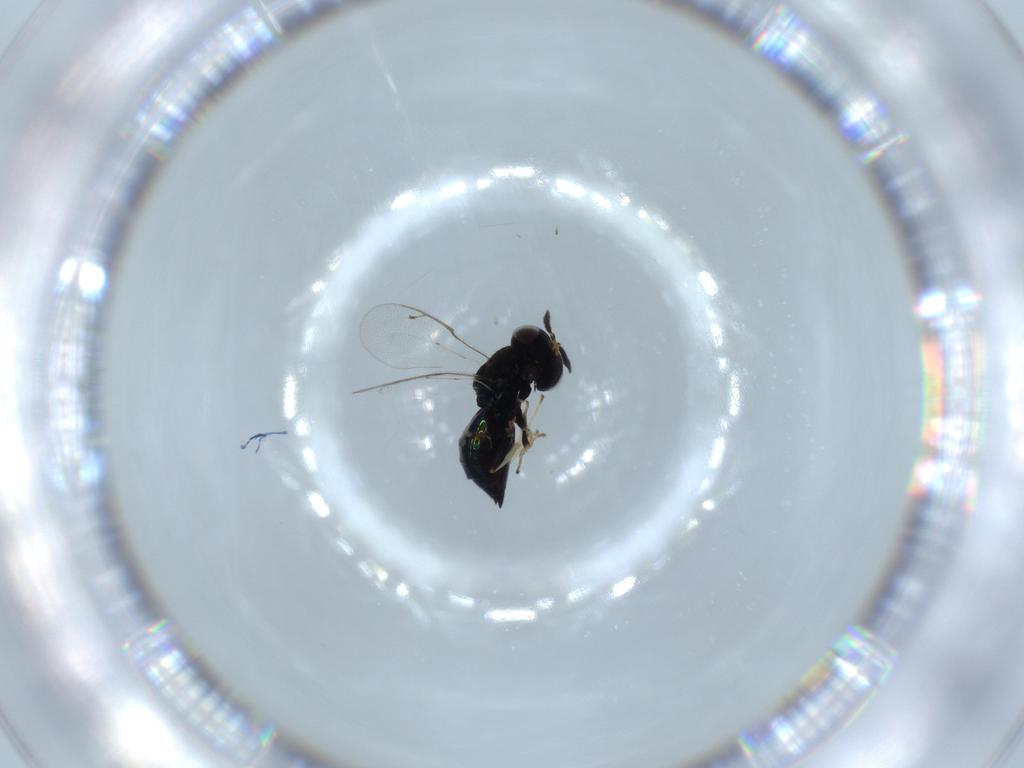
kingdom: Animalia
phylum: Arthropoda
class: Insecta
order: Hymenoptera
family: Pteromalidae
